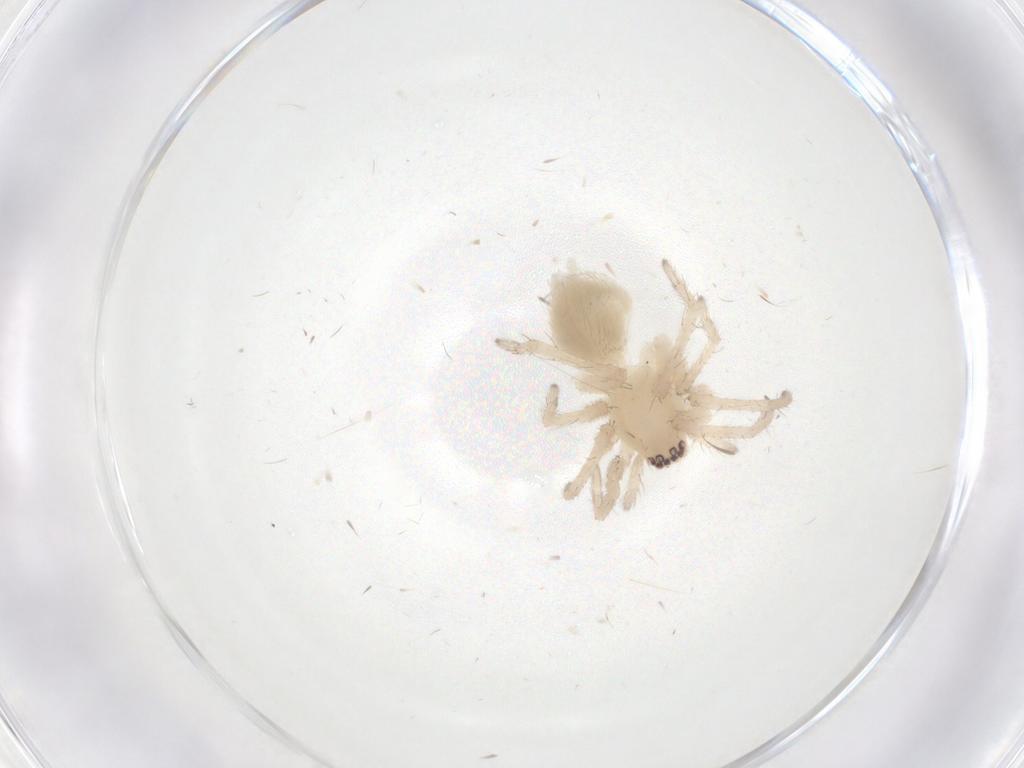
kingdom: Animalia
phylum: Arthropoda
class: Arachnida
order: Araneae
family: Clubionidae
